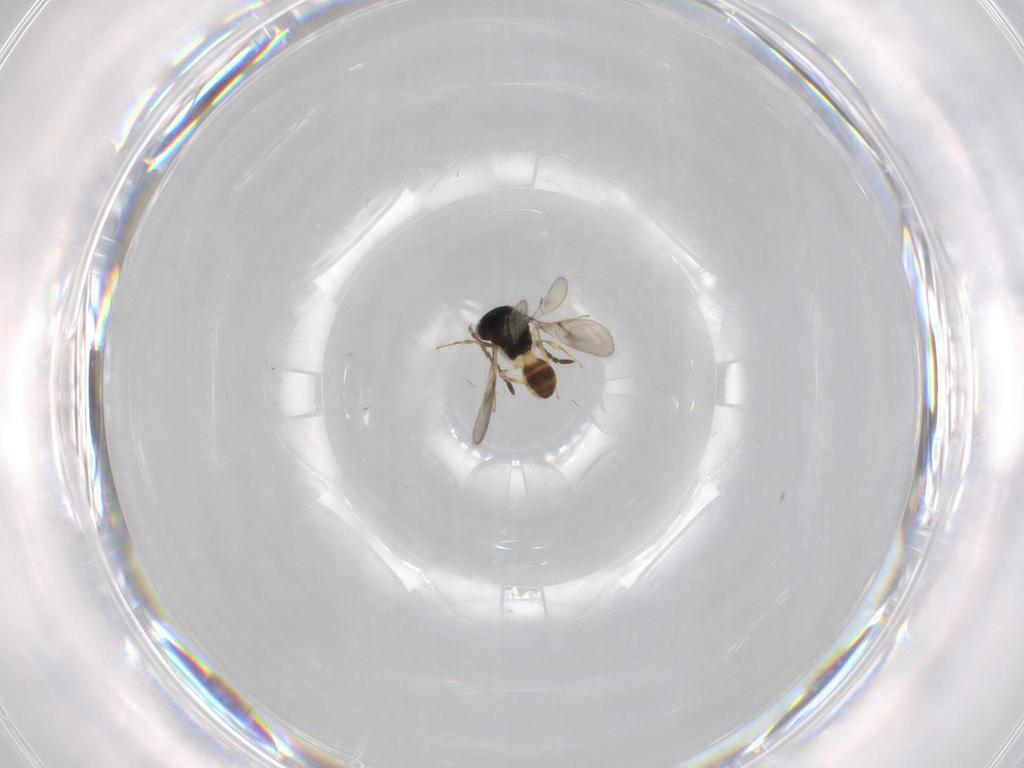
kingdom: Animalia
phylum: Arthropoda
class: Insecta
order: Hymenoptera
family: Scelionidae
